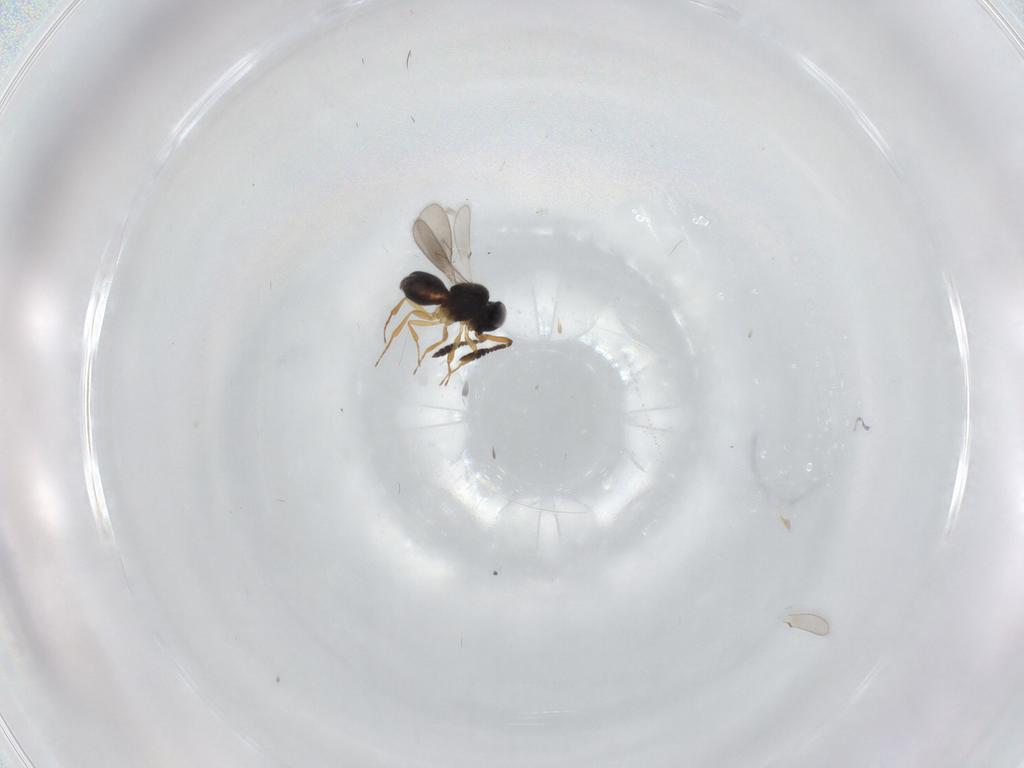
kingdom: Animalia
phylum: Arthropoda
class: Insecta
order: Hymenoptera
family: Scelionidae
